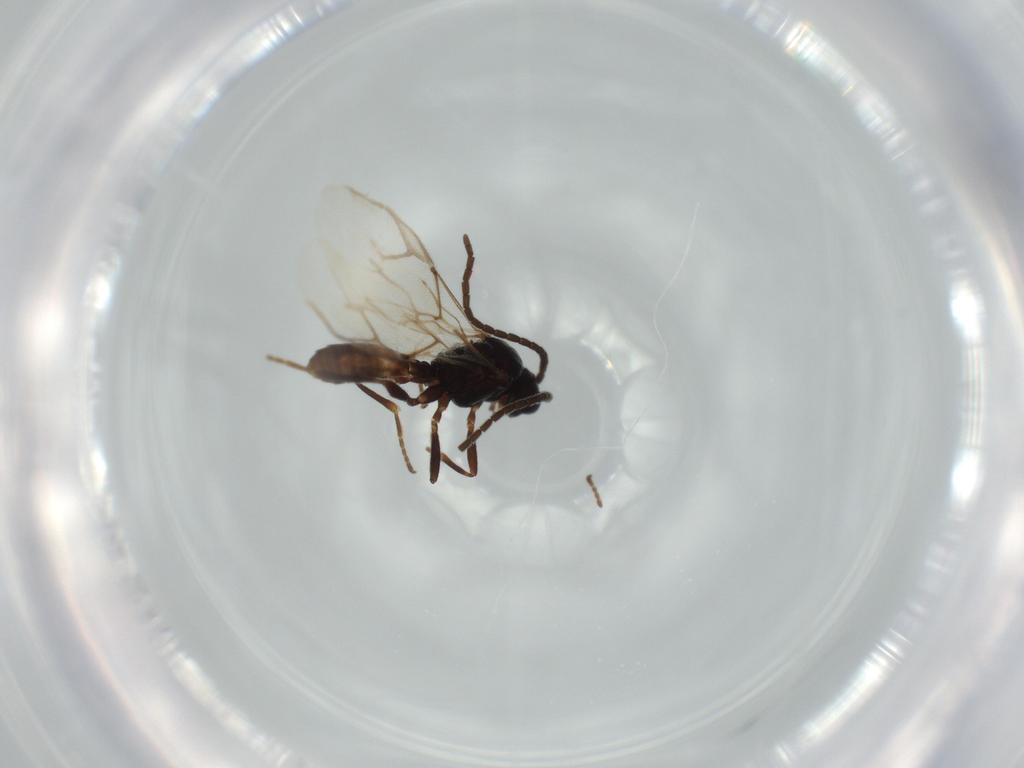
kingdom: Animalia
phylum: Arthropoda
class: Insecta
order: Hymenoptera
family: Braconidae
